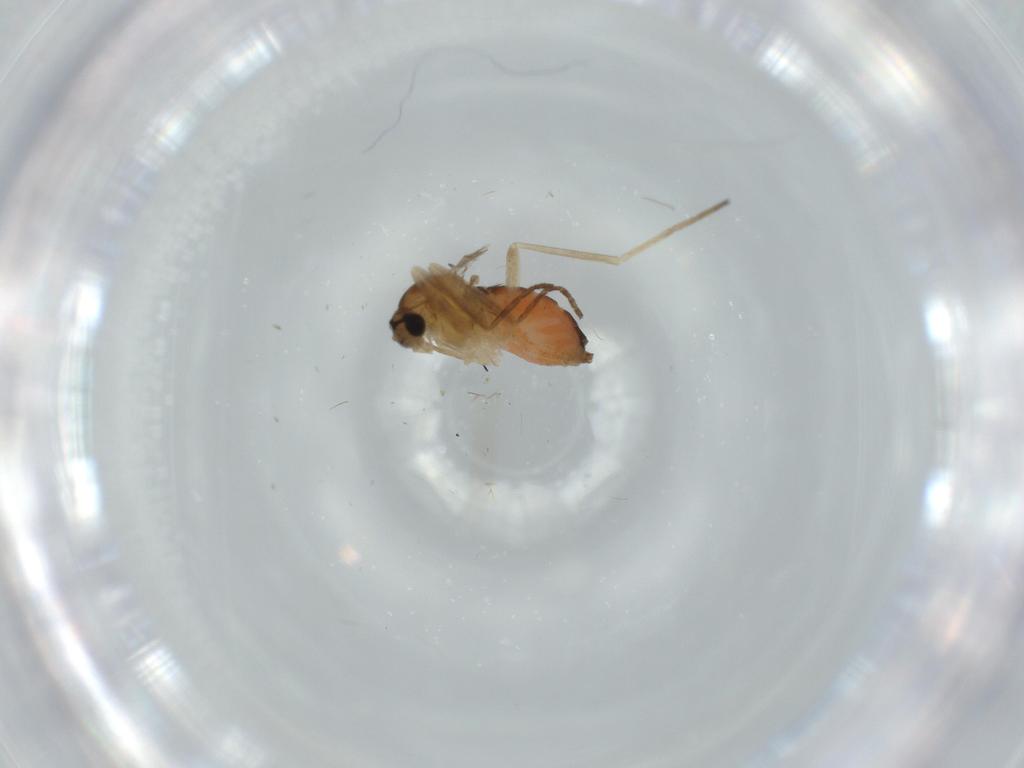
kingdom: Animalia
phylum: Arthropoda
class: Insecta
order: Diptera
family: Cecidomyiidae
